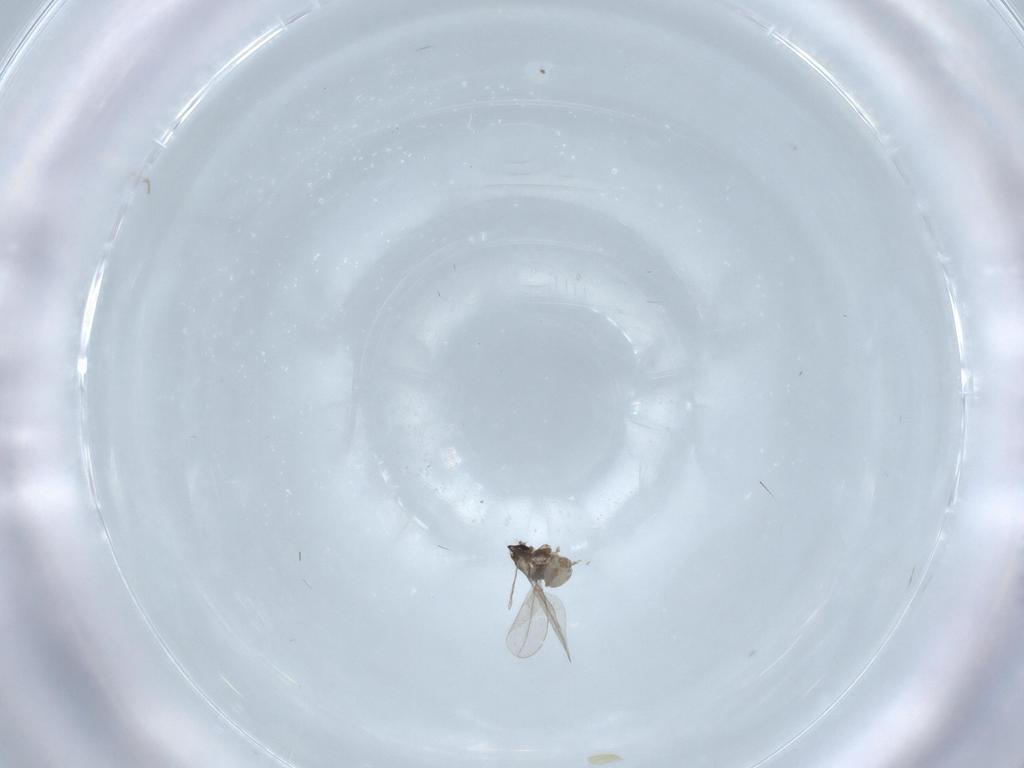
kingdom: Animalia
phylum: Arthropoda
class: Insecta
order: Diptera
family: Cecidomyiidae
